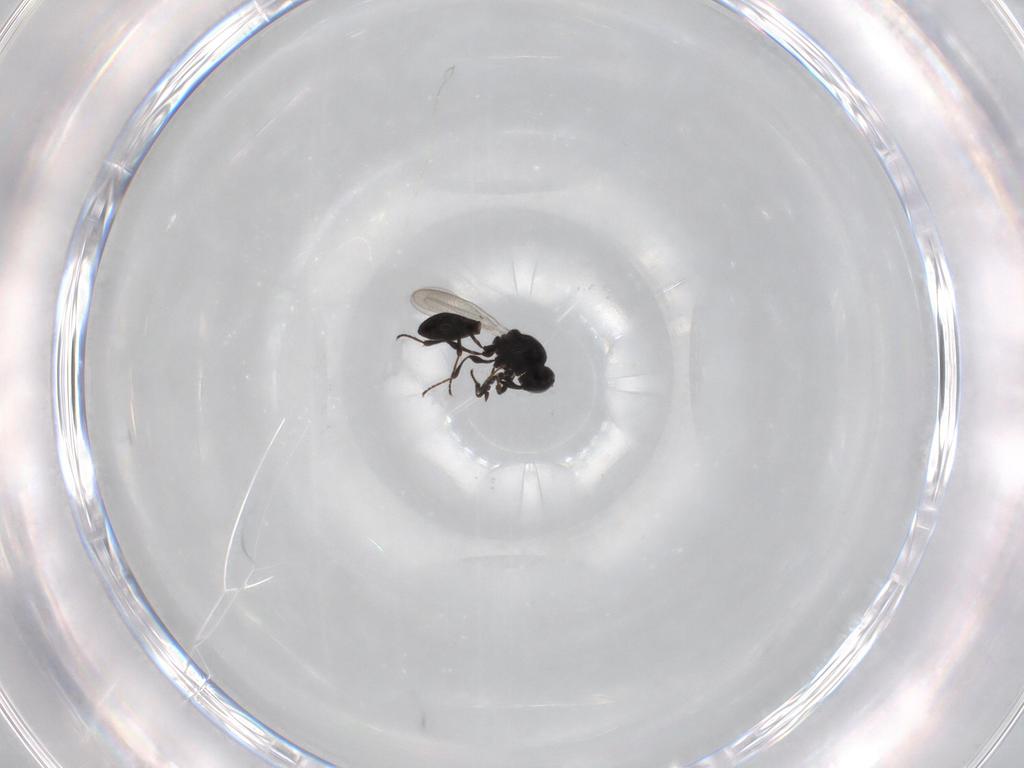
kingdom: Animalia
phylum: Arthropoda
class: Insecta
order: Hymenoptera
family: Platygastridae
